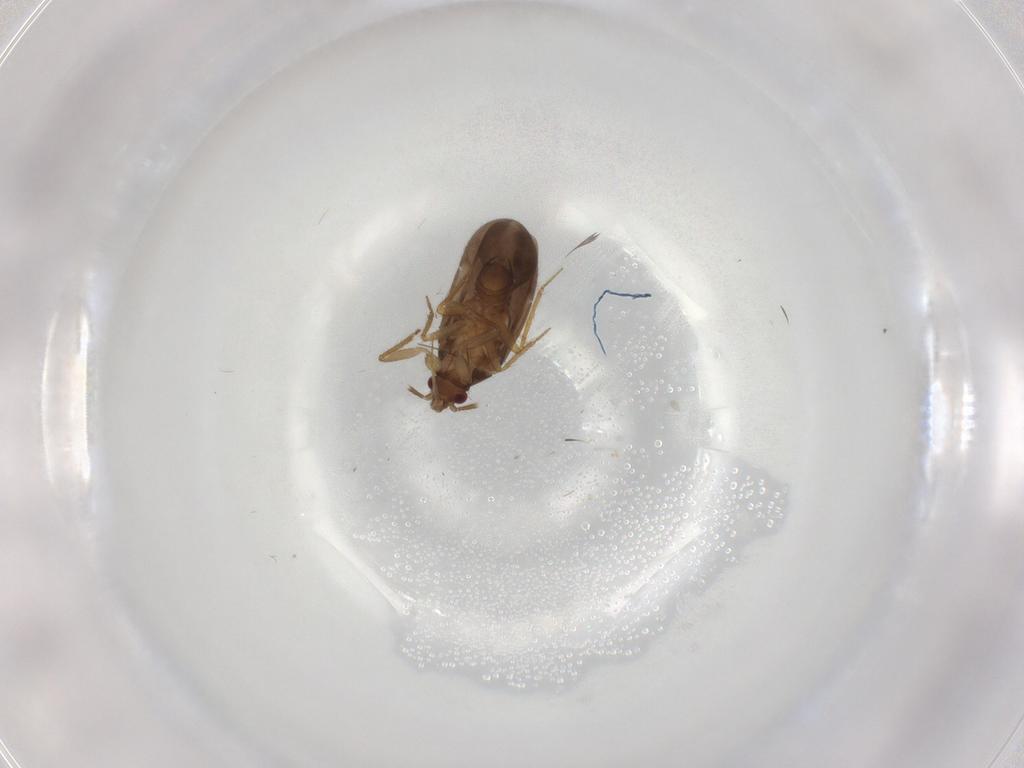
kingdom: Animalia
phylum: Arthropoda
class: Insecta
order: Hemiptera
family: Ceratocombidae
